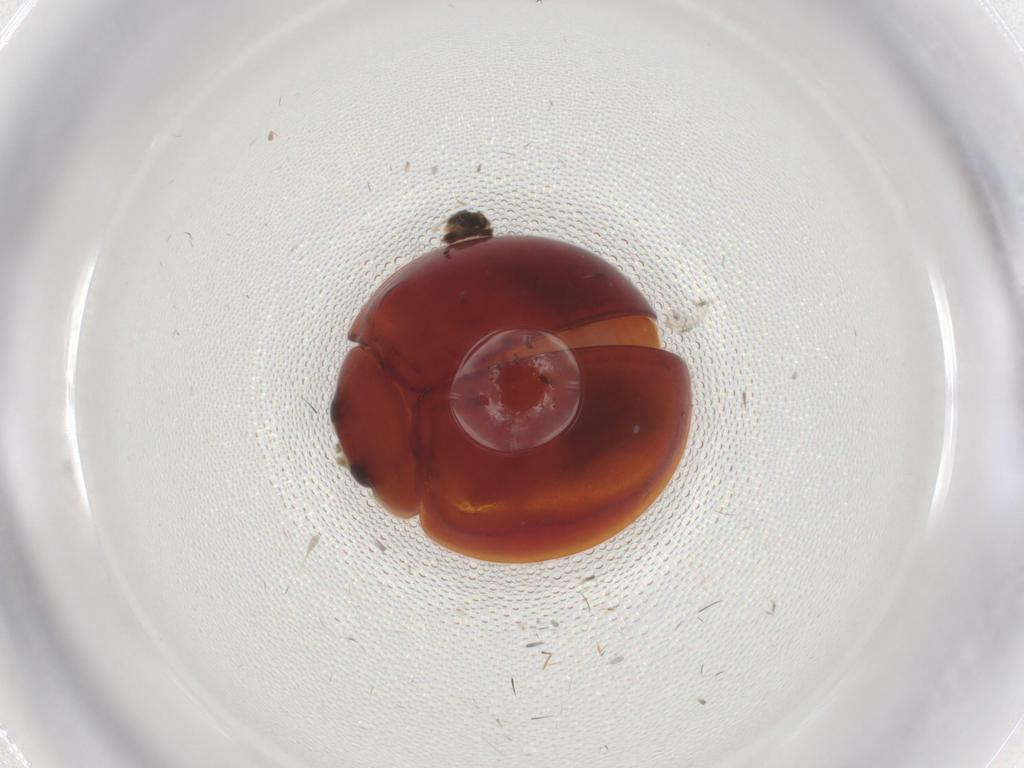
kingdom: Animalia
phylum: Arthropoda
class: Insecta
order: Coleoptera
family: Coccinellidae
